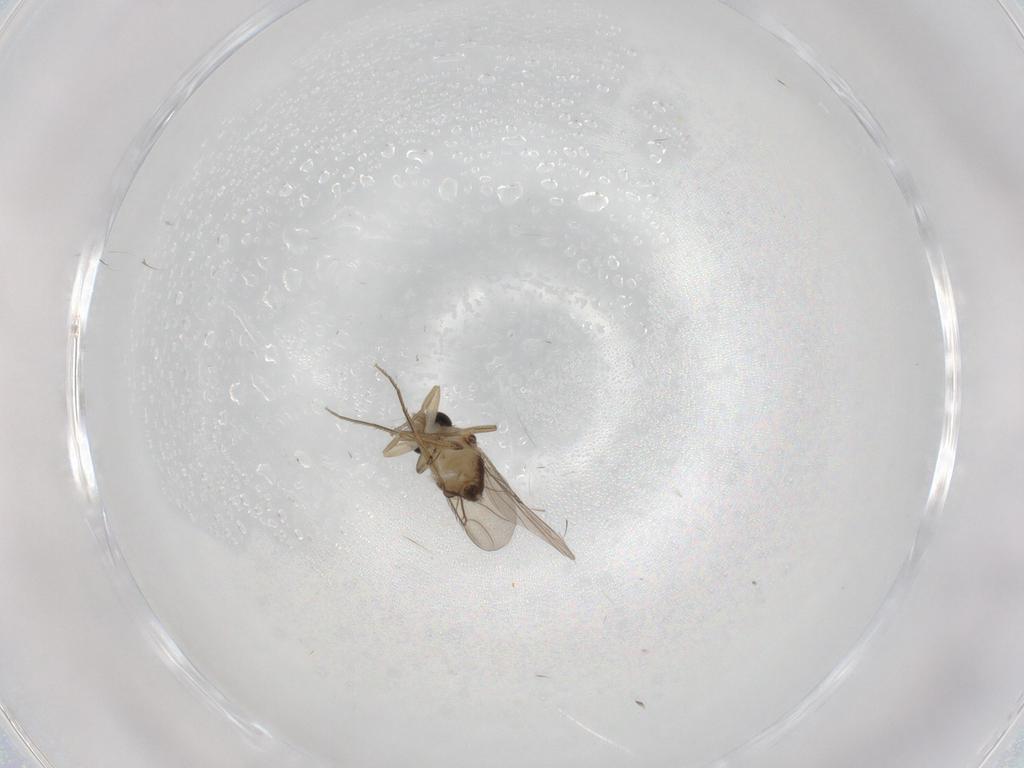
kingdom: Animalia
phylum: Arthropoda
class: Insecta
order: Diptera
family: Phoridae
